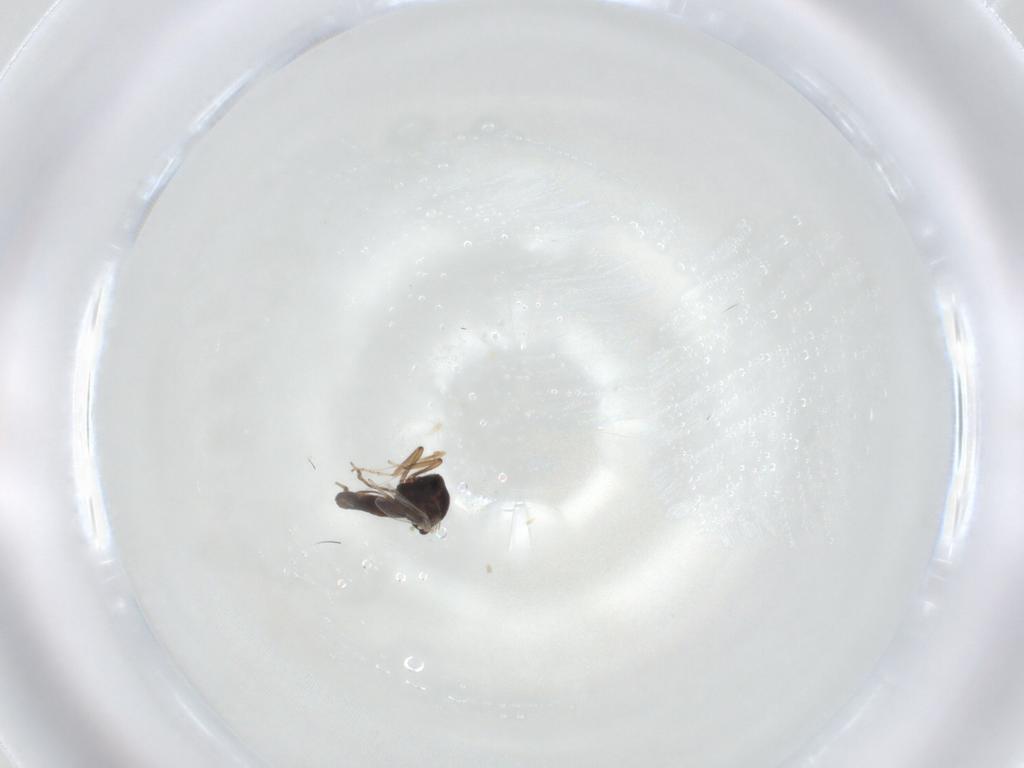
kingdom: Animalia
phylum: Arthropoda
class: Insecta
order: Diptera
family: Ceratopogonidae
